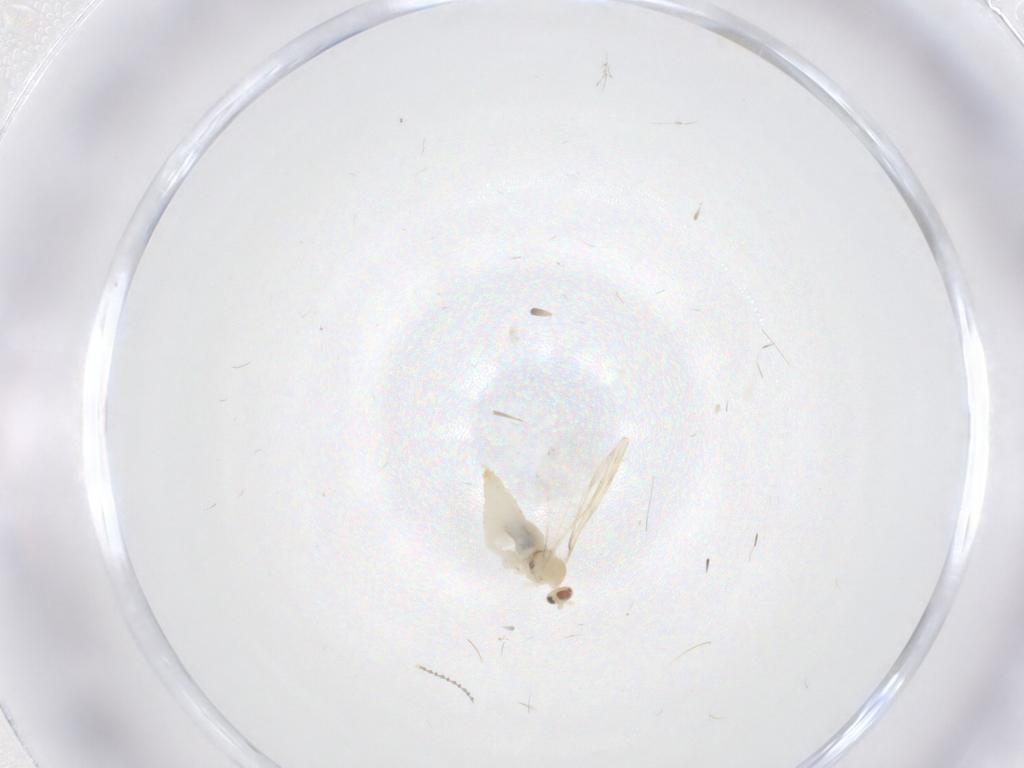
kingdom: Animalia
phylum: Arthropoda
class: Insecta
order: Diptera
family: Cecidomyiidae
